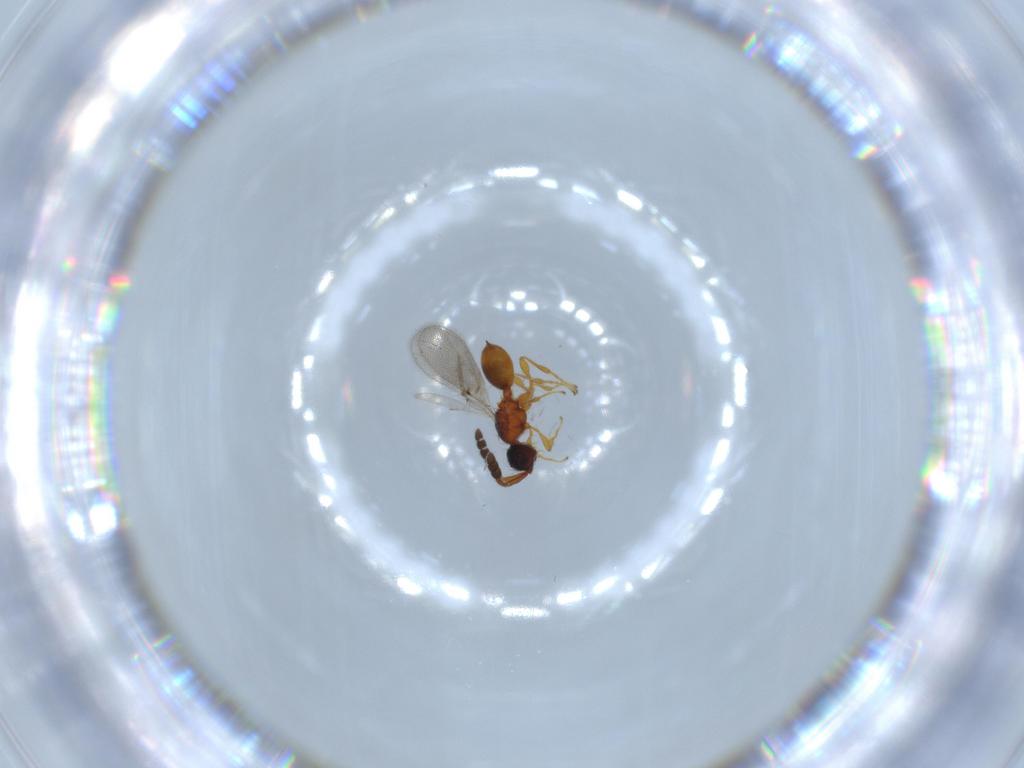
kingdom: Animalia
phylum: Arthropoda
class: Insecta
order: Hymenoptera
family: Diapriidae
